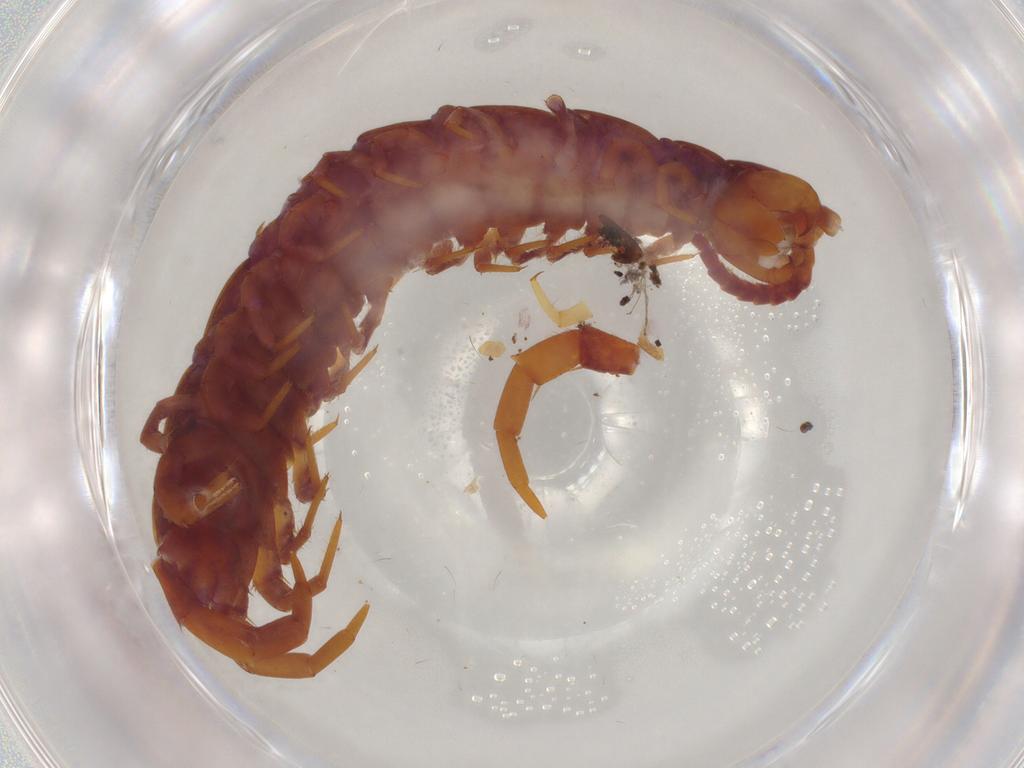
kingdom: Animalia
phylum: Arthropoda
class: Chilopoda
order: Lithobiomorpha
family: Lithobiidae
